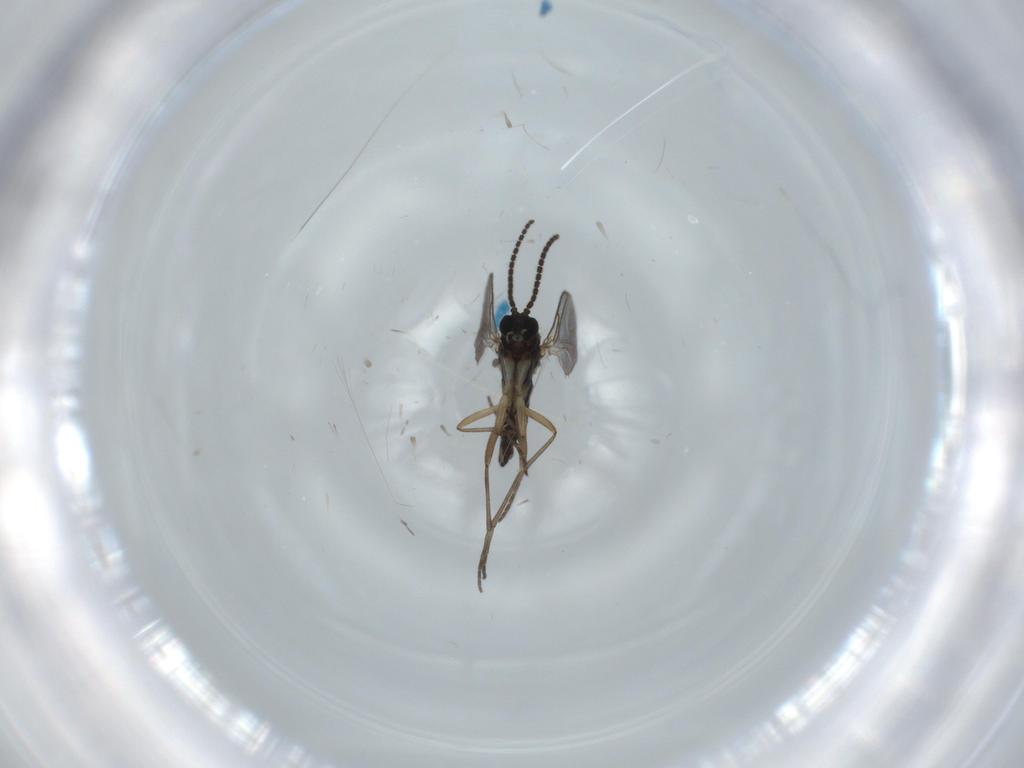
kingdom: Animalia
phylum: Arthropoda
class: Insecta
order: Diptera
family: Sciaridae
